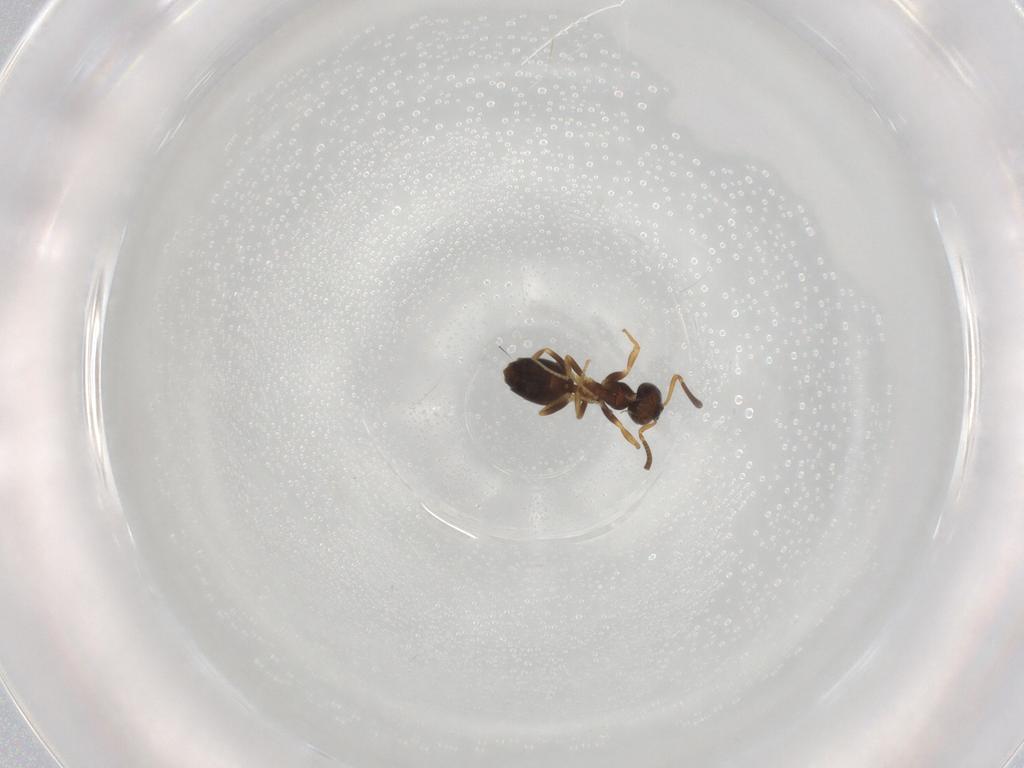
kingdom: Animalia
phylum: Arthropoda
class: Insecta
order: Hymenoptera
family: Formicidae
